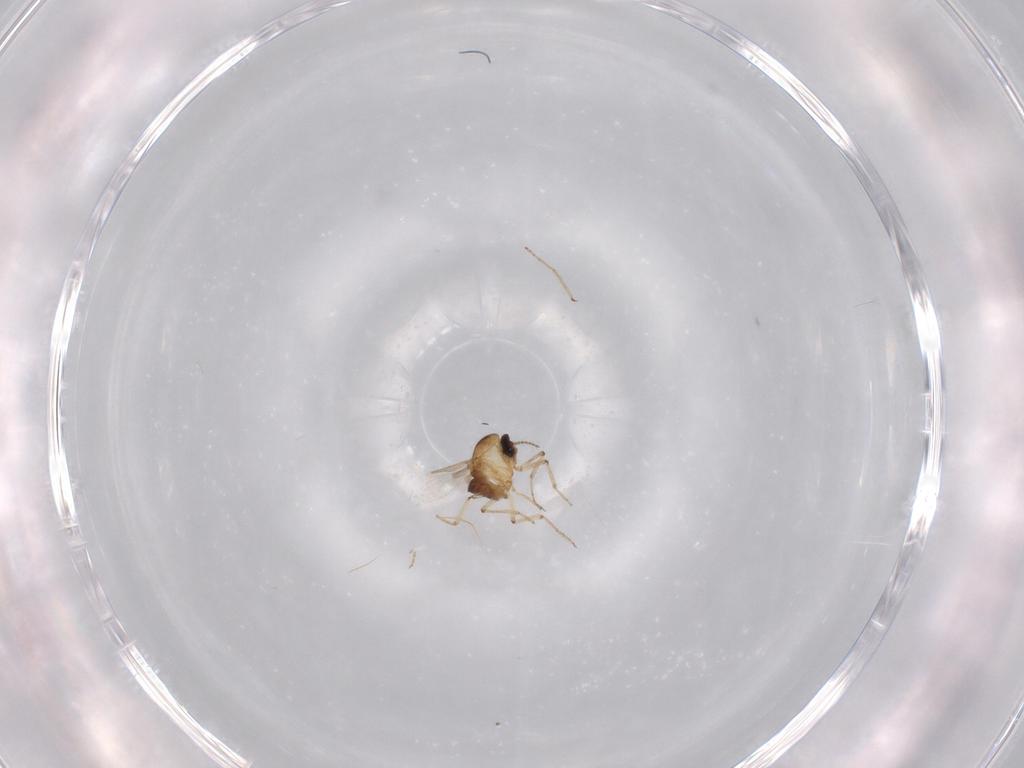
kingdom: Animalia
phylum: Arthropoda
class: Insecta
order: Diptera
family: Ceratopogonidae
